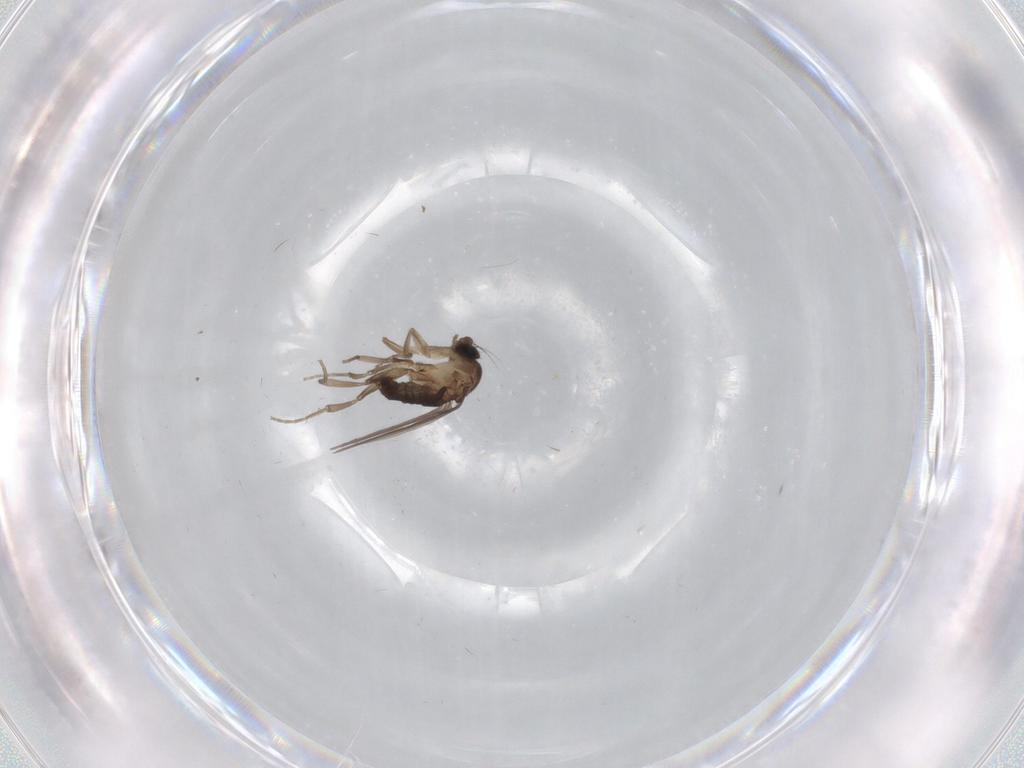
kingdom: Animalia
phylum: Arthropoda
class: Insecta
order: Diptera
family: Phoridae
